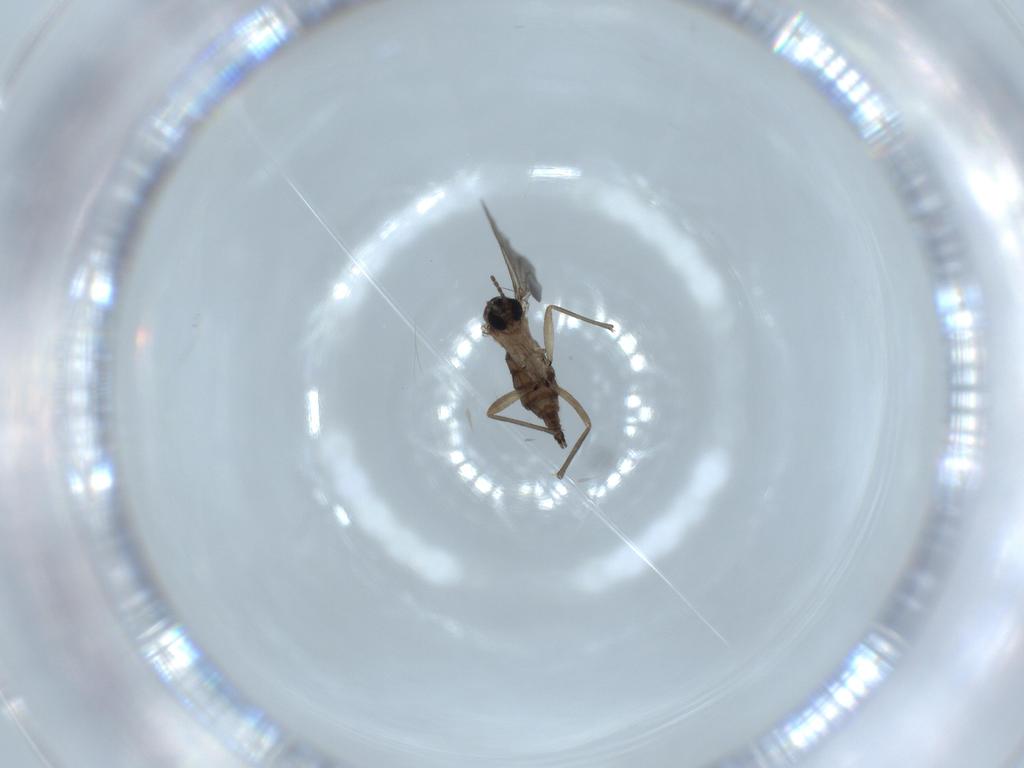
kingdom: Animalia
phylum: Arthropoda
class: Insecta
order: Diptera
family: Sciaridae
